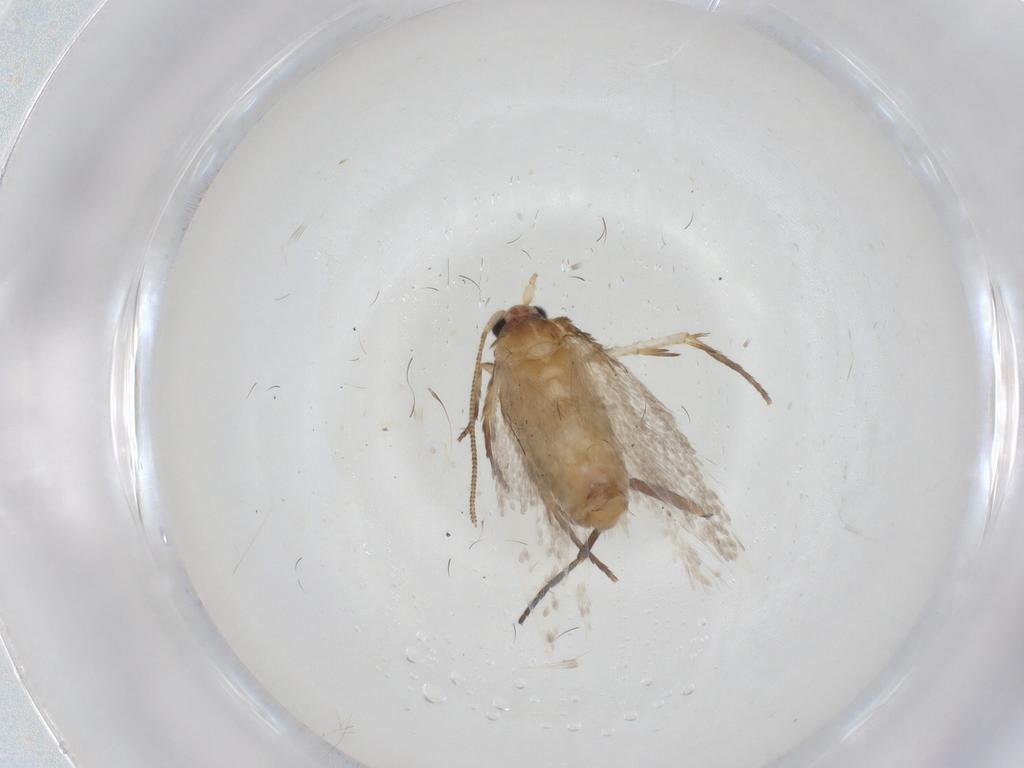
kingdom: Animalia
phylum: Arthropoda
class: Insecta
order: Lepidoptera
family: Nepticulidae
